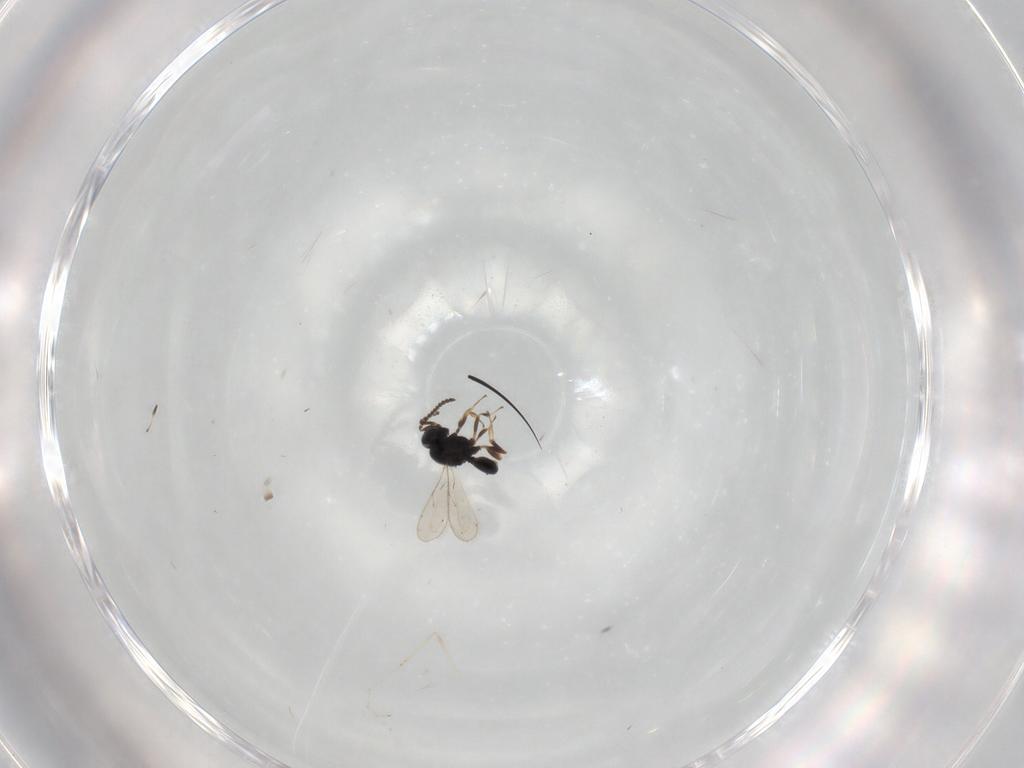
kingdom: Animalia
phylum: Arthropoda
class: Insecta
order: Hymenoptera
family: Scelionidae
